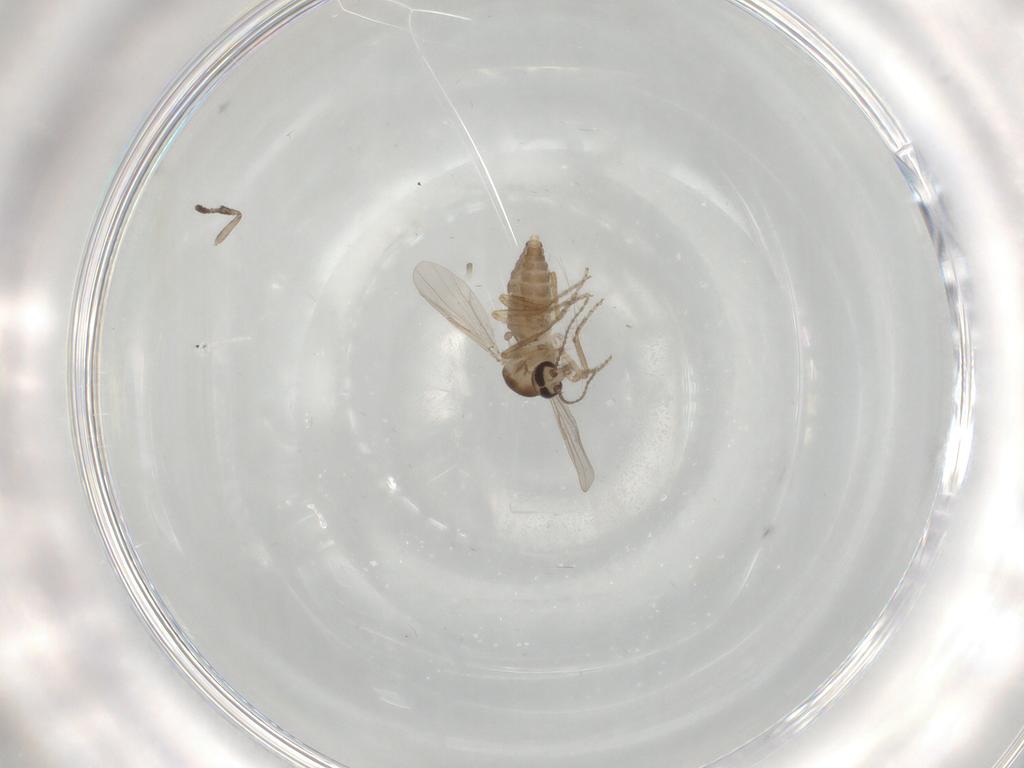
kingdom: Animalia
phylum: Arthropoda
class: Insecta
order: Diptera
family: Ceratopogonidae
